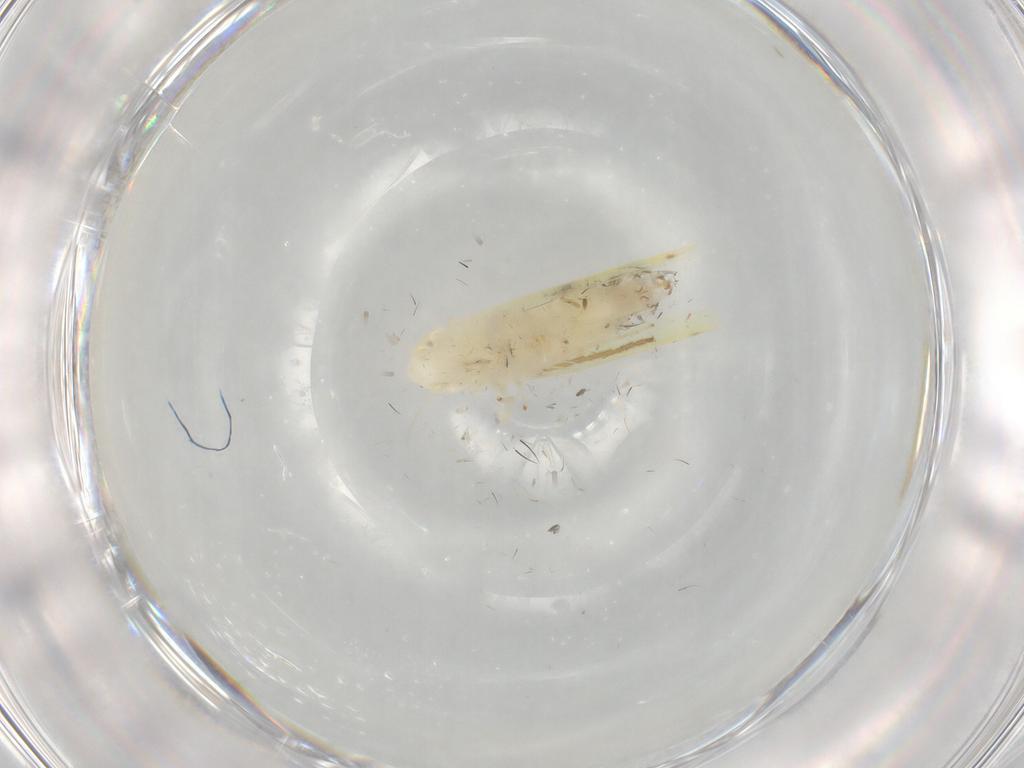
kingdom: Animalia
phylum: Arthropoda
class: Insecta
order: Hemiptera
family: Cicadellidae
